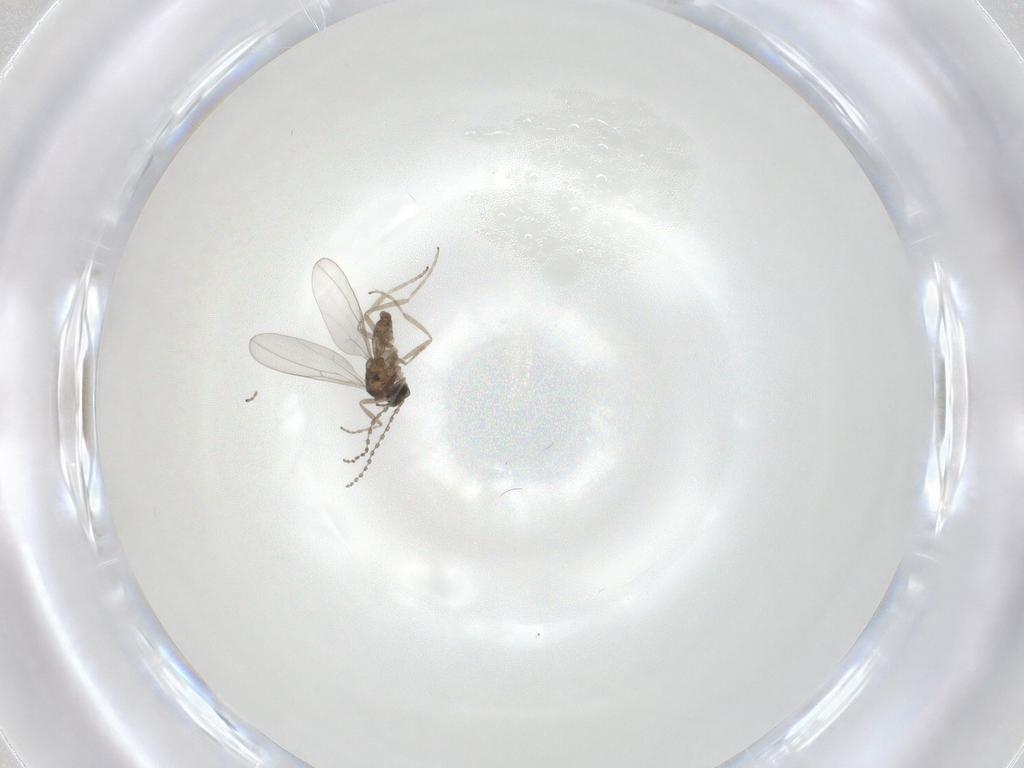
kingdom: Animalia
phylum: Arthropoda
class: Insecta
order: Diptera
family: Cecidomyiidae
